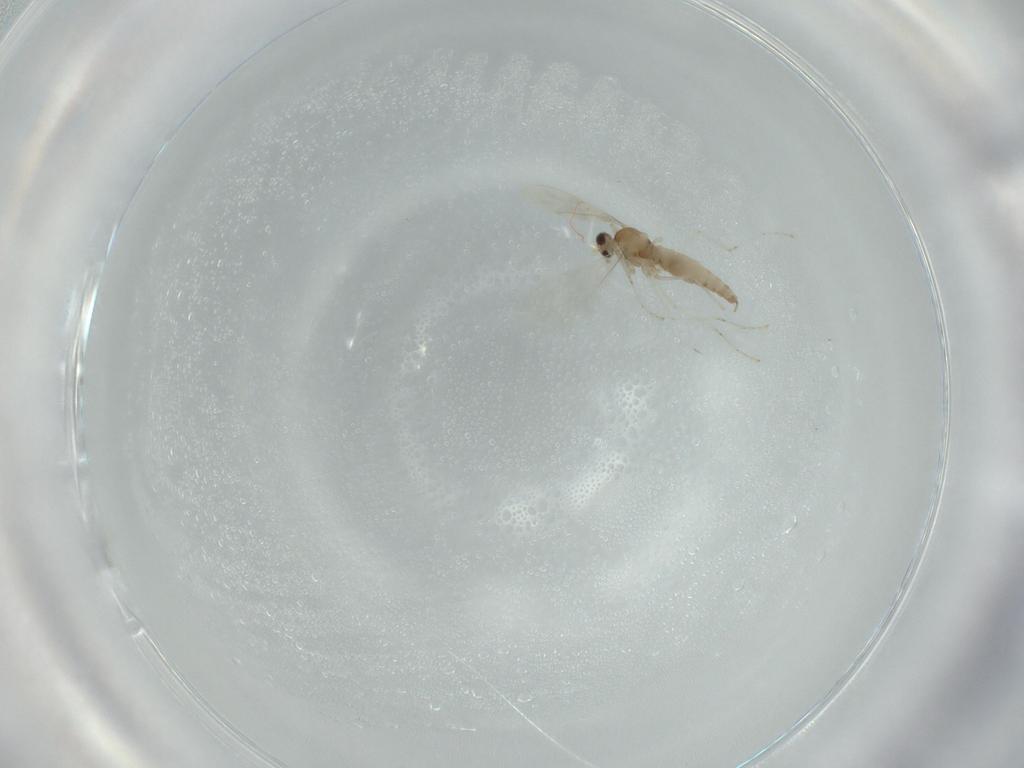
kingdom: Animalia
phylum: Arthropoda
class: Insecta
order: Diptera
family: Cecidomyiidae
